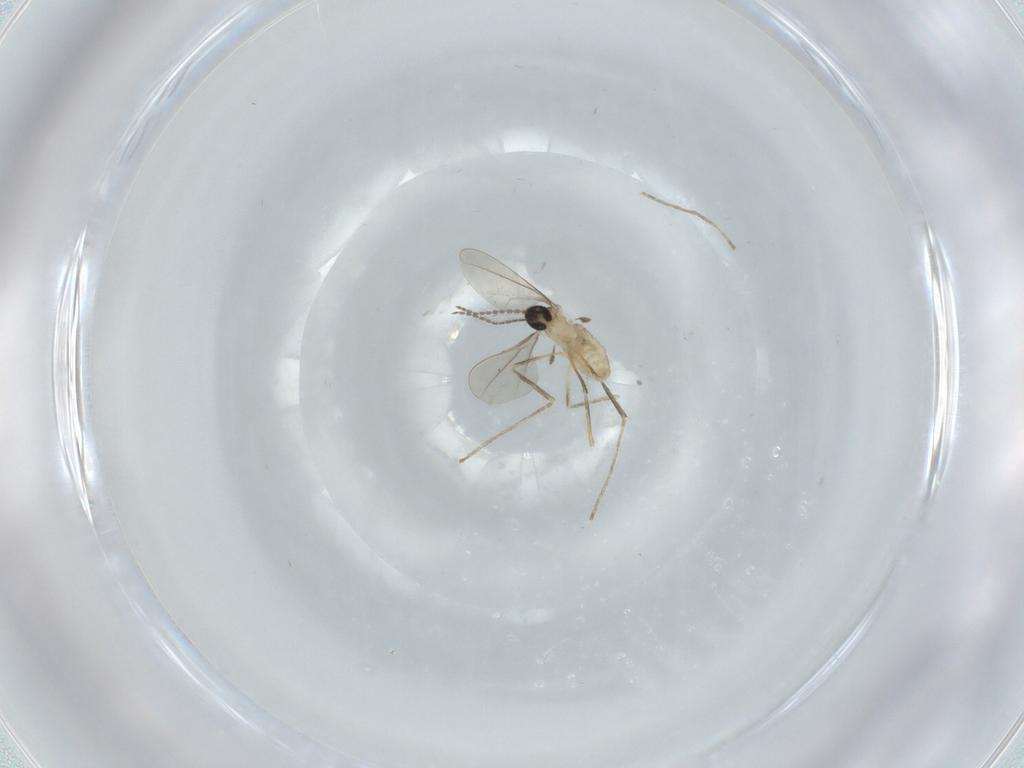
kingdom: Animalia
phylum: Arthropoda
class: Insecta
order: Diptera
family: Cecidomyiidae
